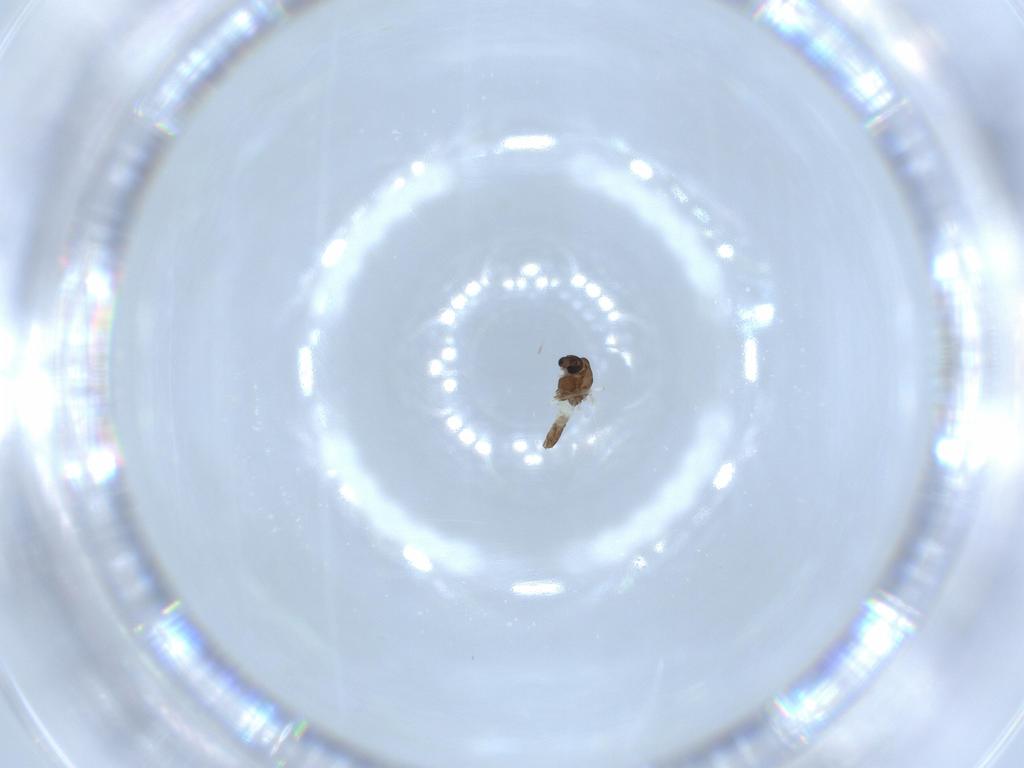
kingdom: Animalia
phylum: Arthropoda
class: Insecta
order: Diptera
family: Chironomidae
